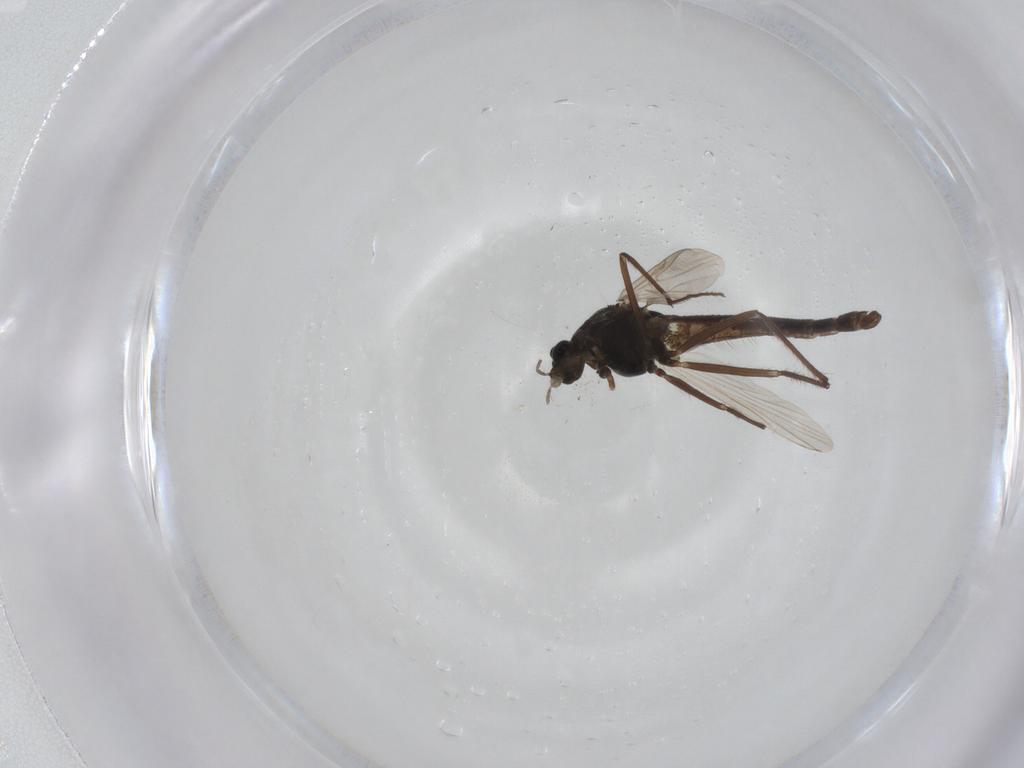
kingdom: Animalia
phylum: Arthropoda
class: Insecta
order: Diptera
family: Chironomidae
